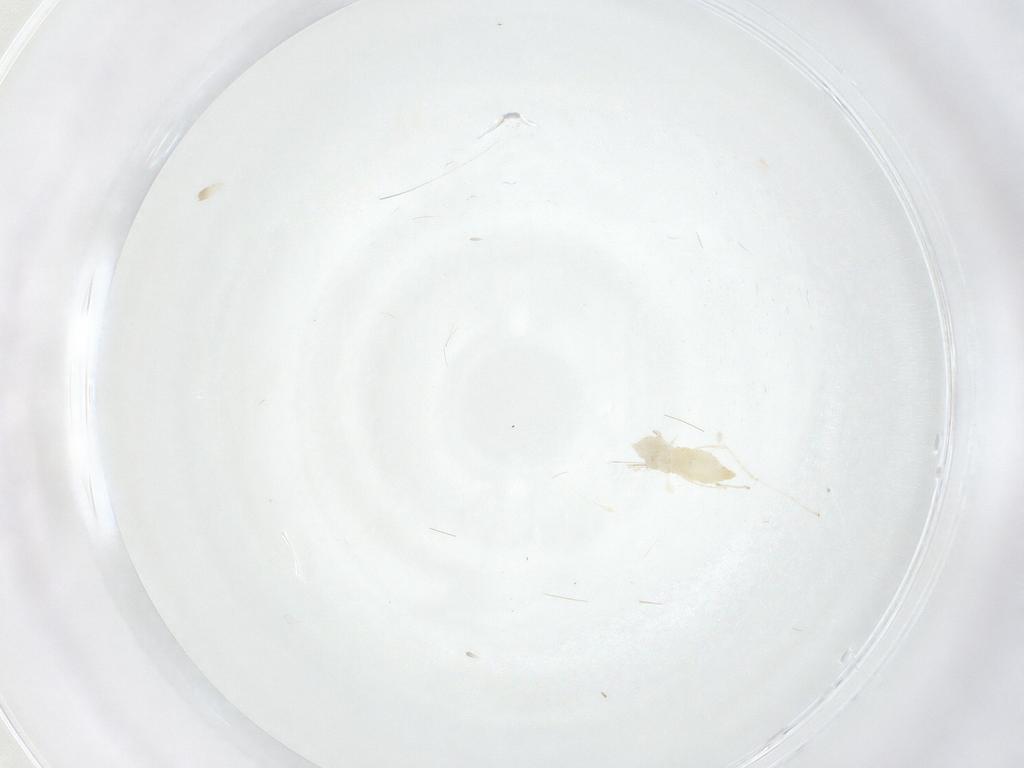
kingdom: Animalia
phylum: Arthropoda
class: Insecta
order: Diptera
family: Cecidomyiidae
